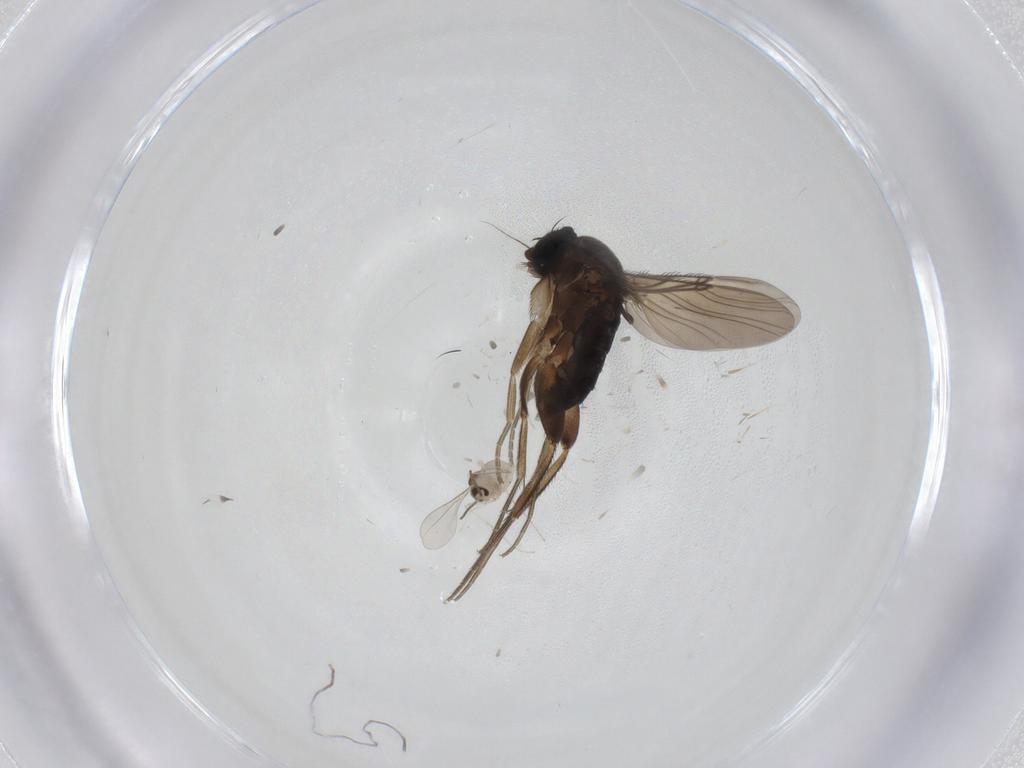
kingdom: Animalia
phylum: Arthropoda
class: Insecta
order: Diptera
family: Phoridae
